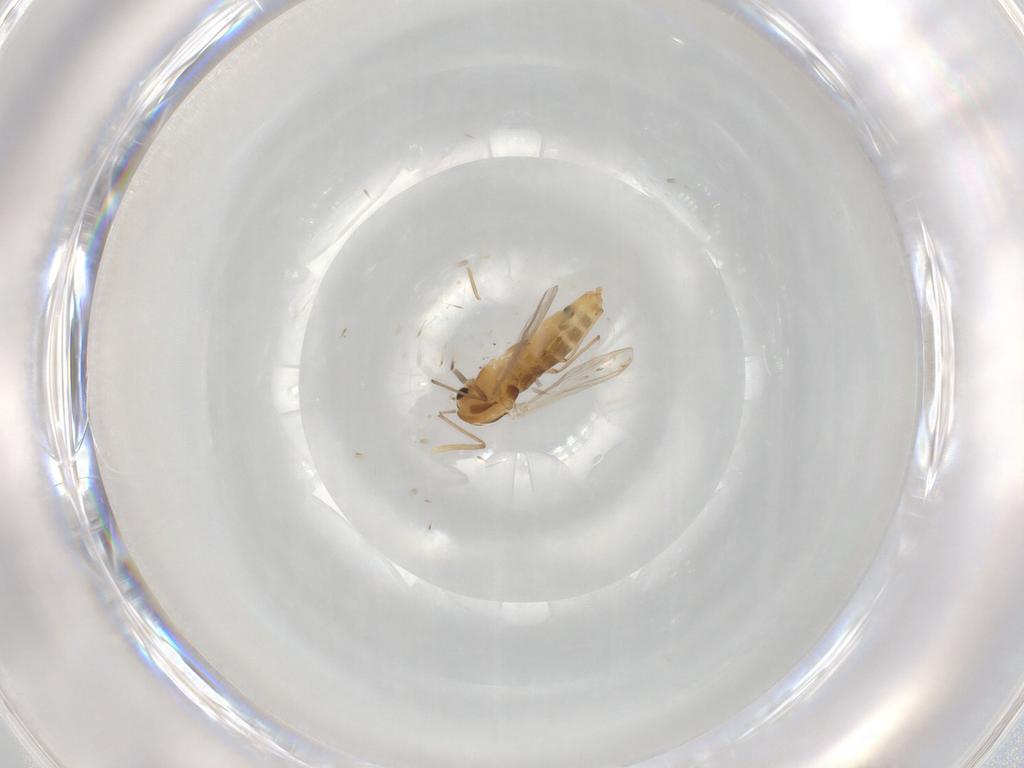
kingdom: Animalia
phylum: Arthropoda
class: Insecta
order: Diptera
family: Chironomidae
